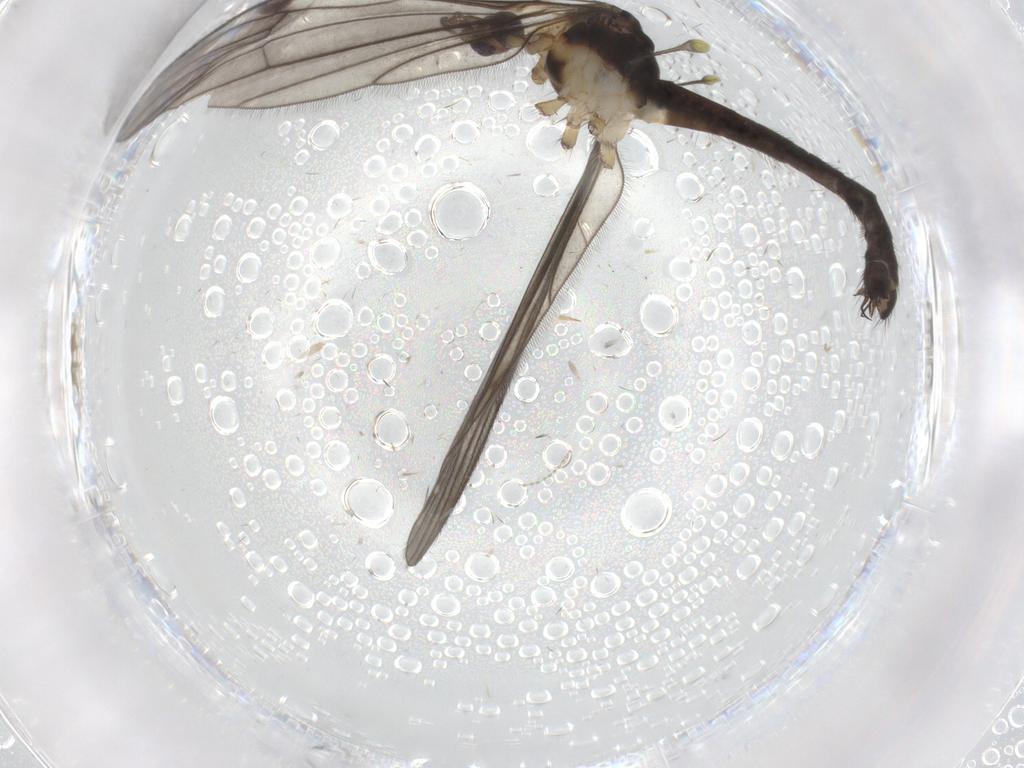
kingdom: Animalia
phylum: Arthropoda
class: Insecta
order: Diptera
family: Limoniidae
